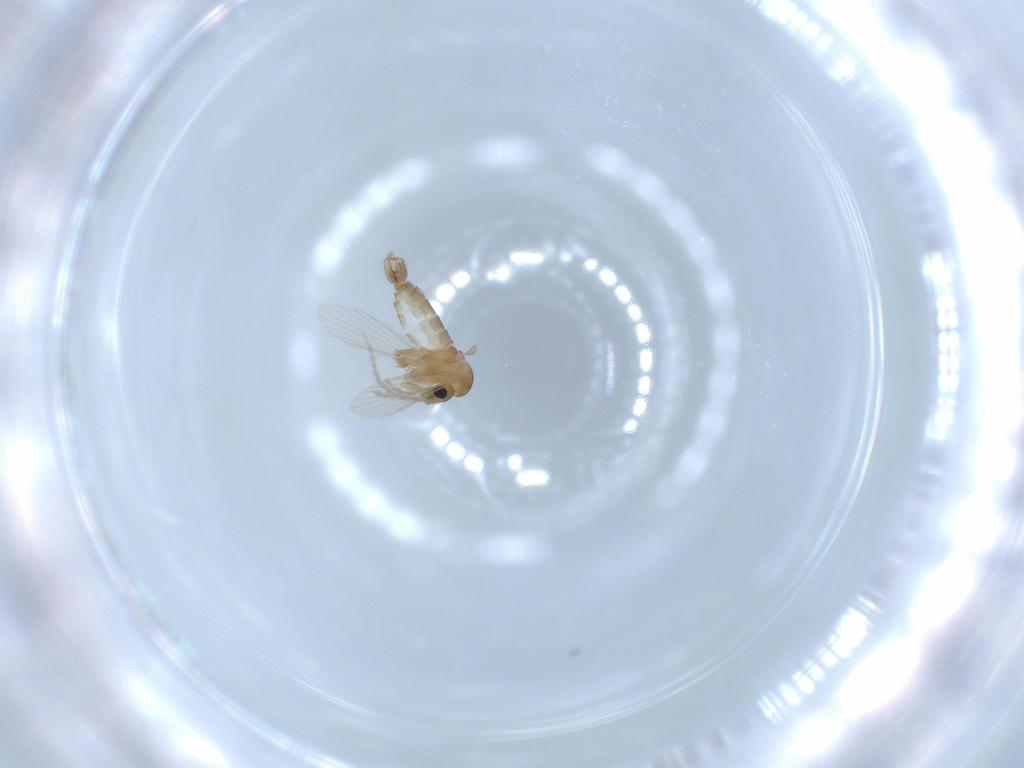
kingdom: Animalia
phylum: Arthropoda
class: Insecta
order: Diptera
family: Psychodidae
